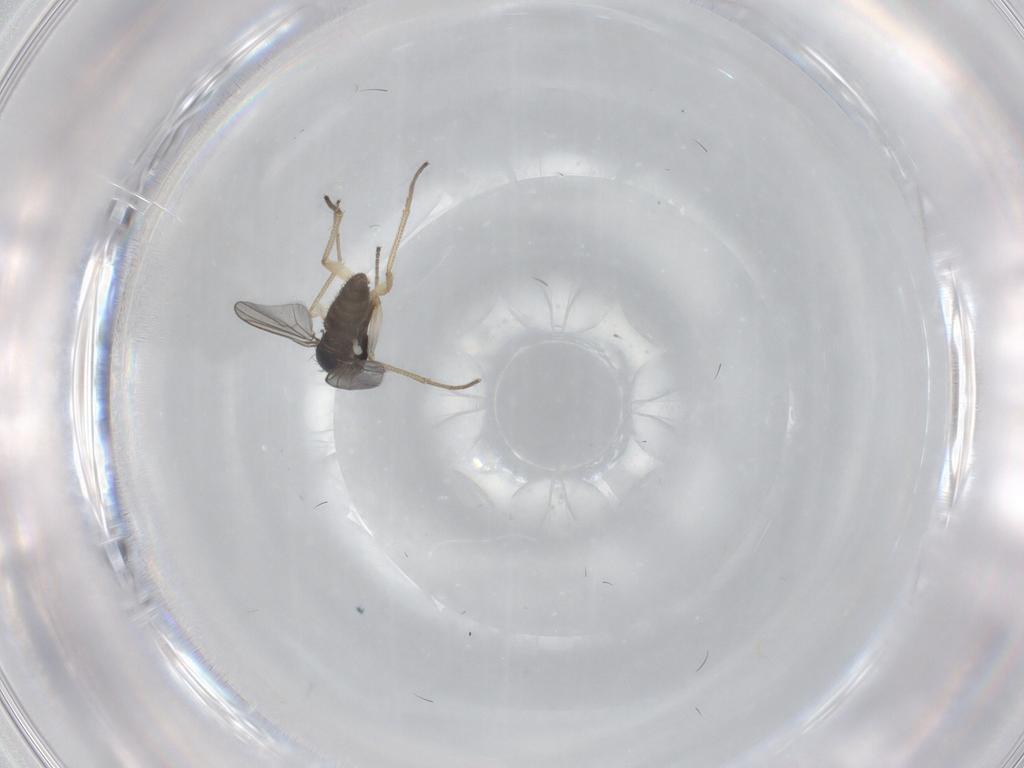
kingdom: Animalia
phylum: Arthropoda
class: Insecta
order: Diptera
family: Dolichopodidae
